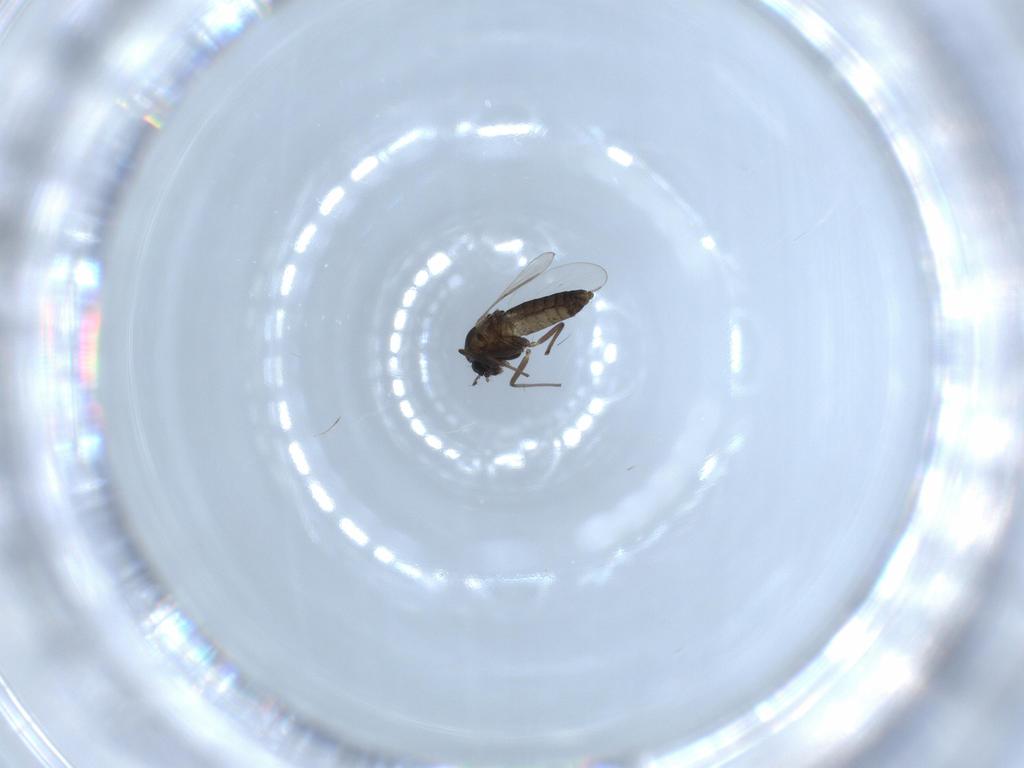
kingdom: Animalia
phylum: Arthropoda
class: Insecta
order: Diptera
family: Chironomidae
